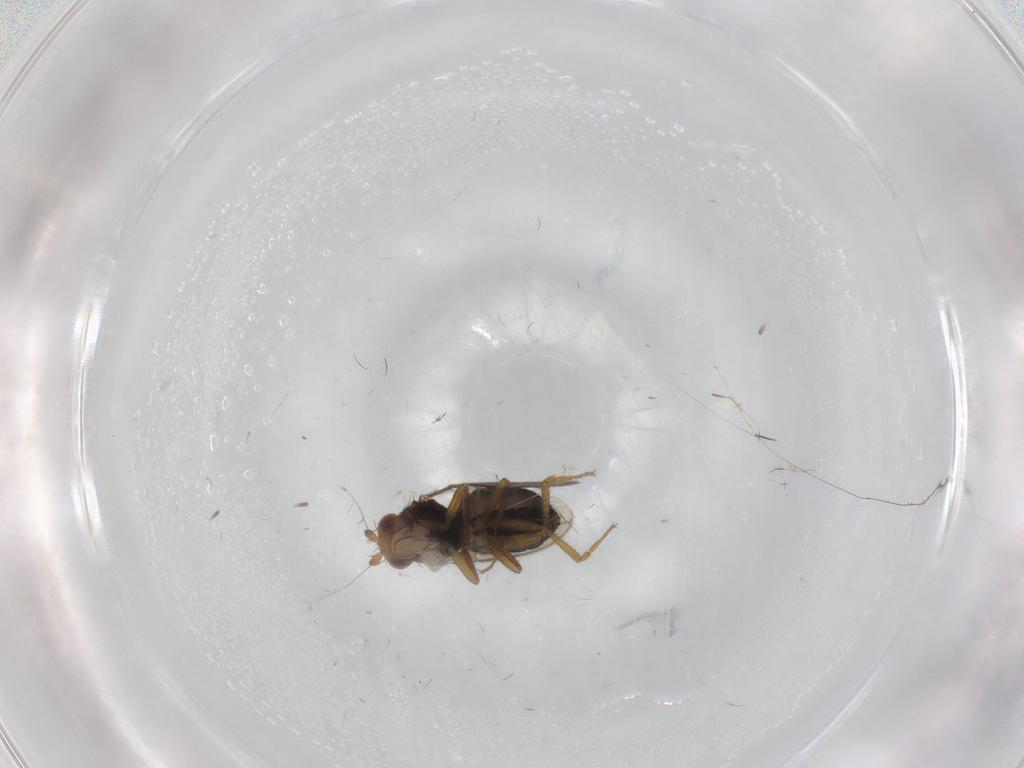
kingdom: Animalia
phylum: Arthropoda
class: Insecta
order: Diptera
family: Sphaeroceridae
